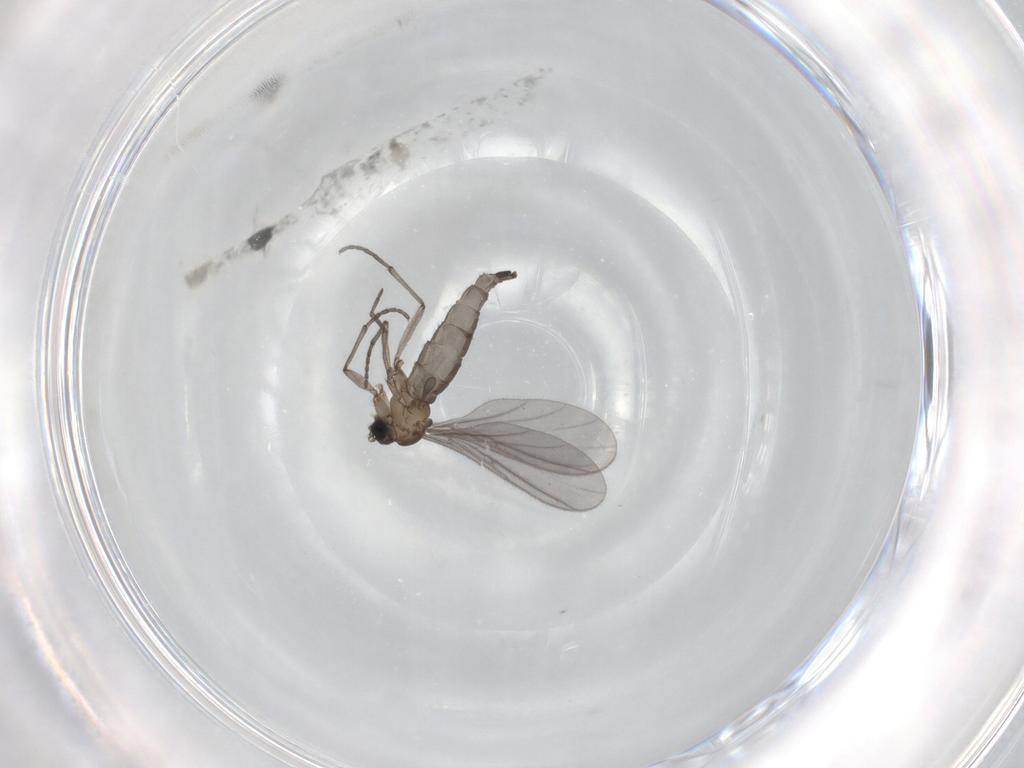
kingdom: Animalia
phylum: Arthropoda
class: Insecta
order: Diptera
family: Sciaridae
